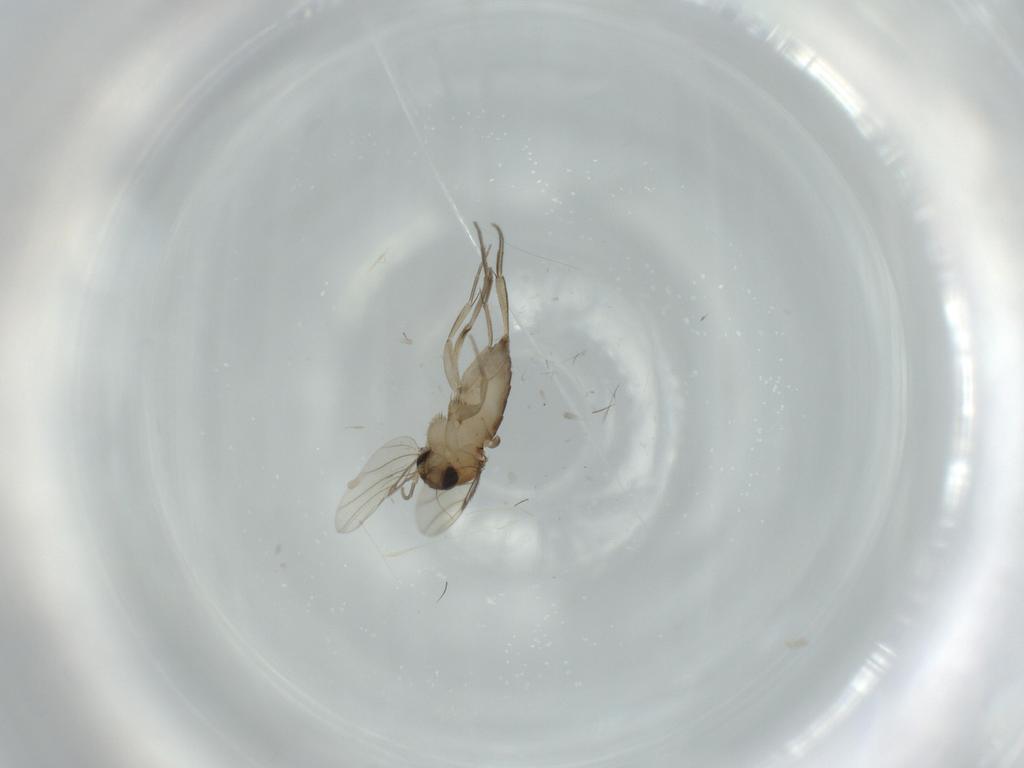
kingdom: Animalia
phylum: Arthropoda
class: Insecta
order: Diptera
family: Phoridae
